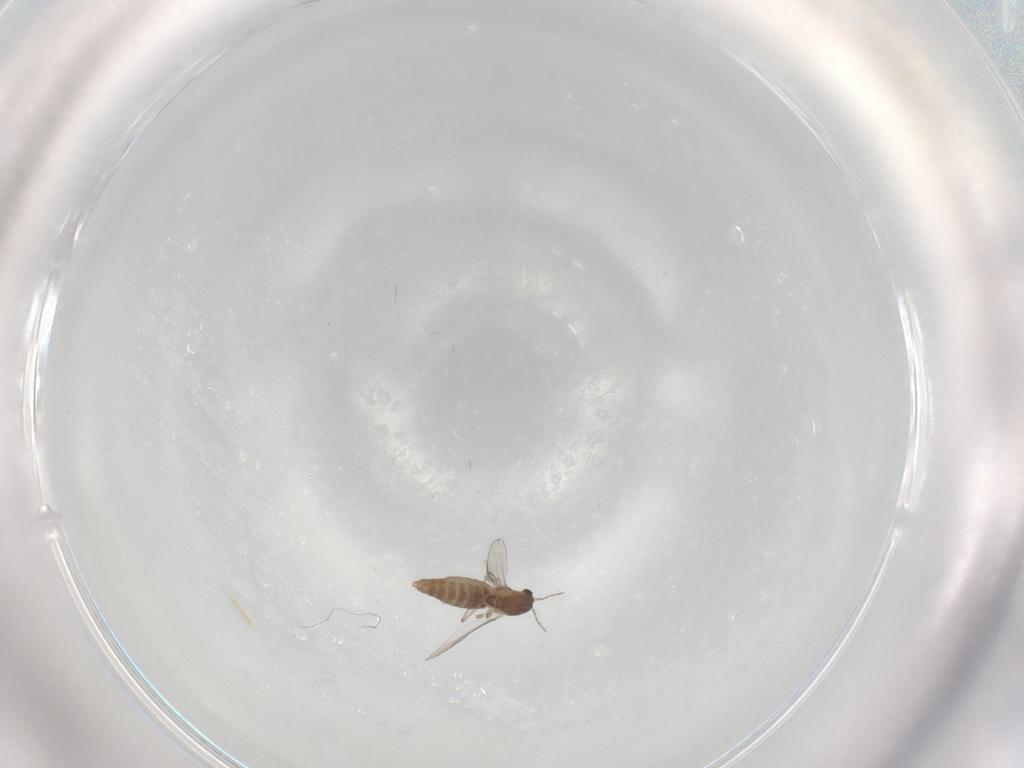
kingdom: Animalia
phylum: Arthropoda
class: Insecta
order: Diptera
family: Chironomidae
